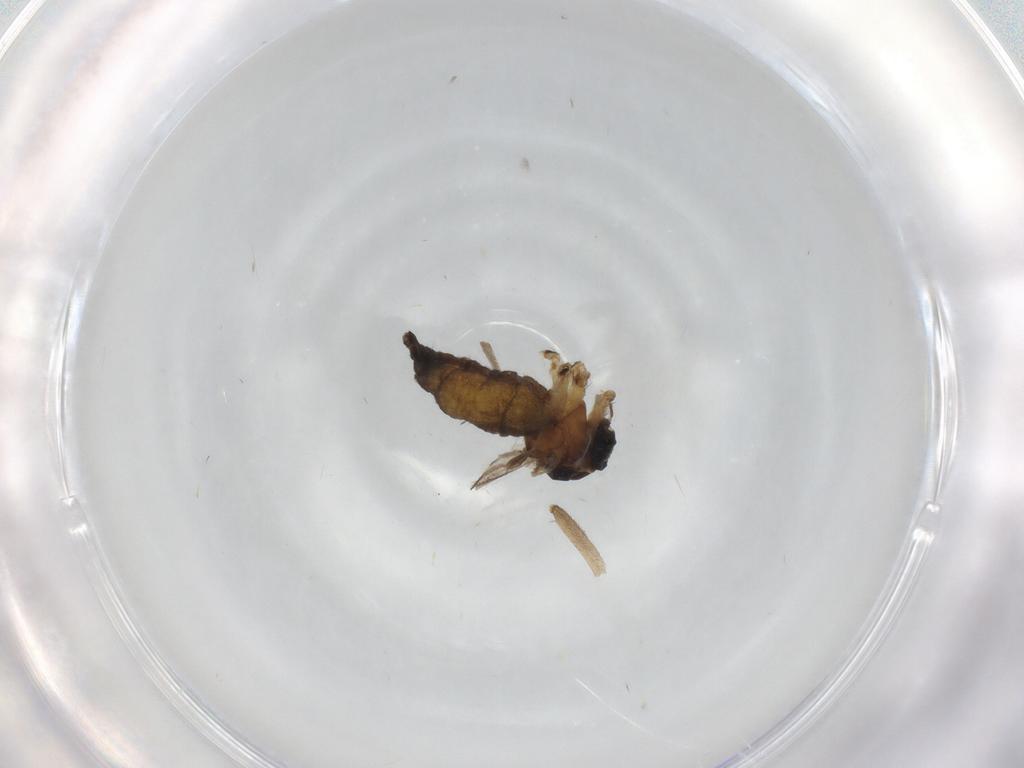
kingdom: Animalia
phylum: Arthropoda
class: Insecta
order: Diptera
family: Sciaridae
